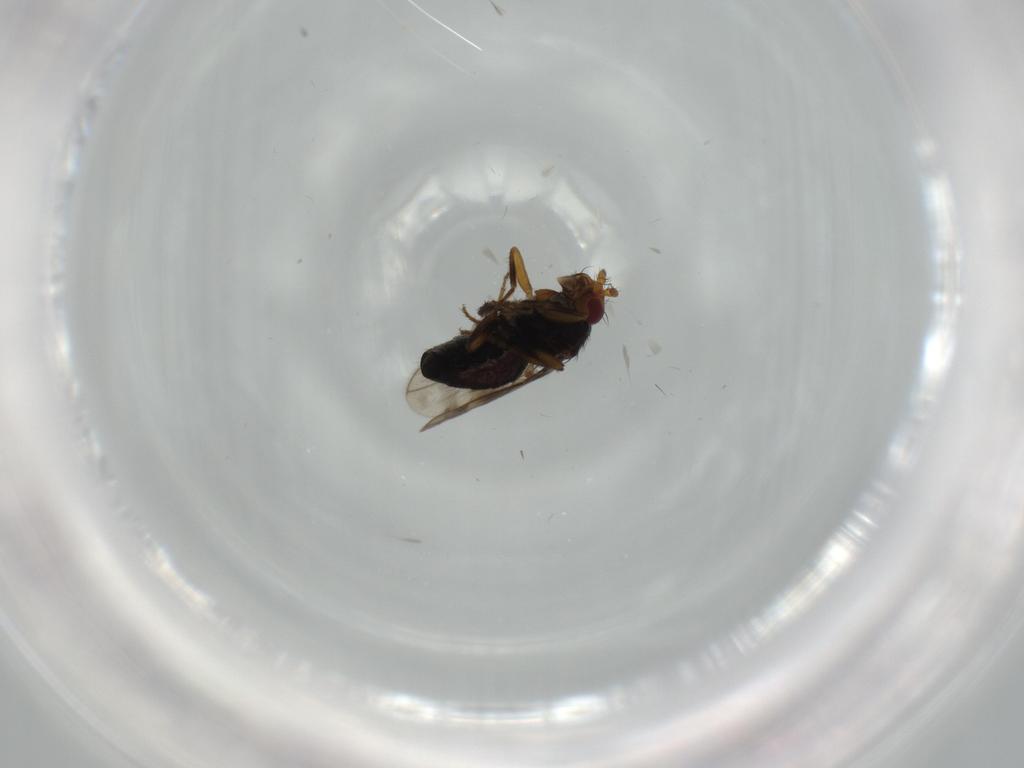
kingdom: Animalia
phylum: Arthropoda
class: Insecta
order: Diptera
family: Sphaeroceridae
